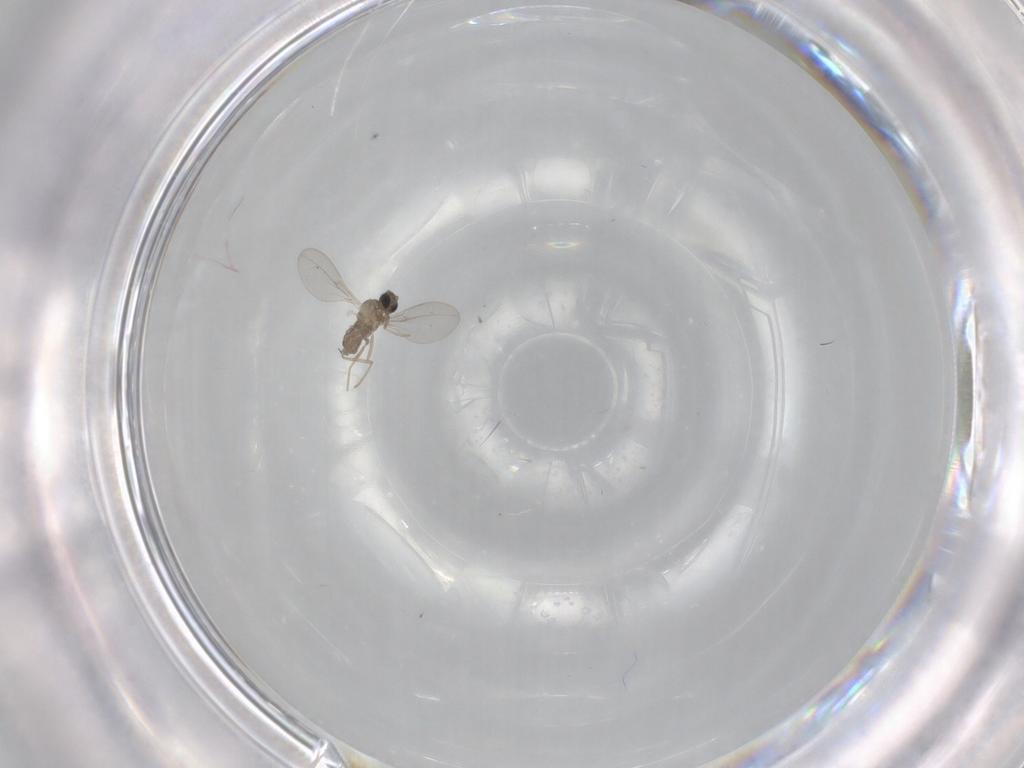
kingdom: Animalia
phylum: Arthropoda
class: Insecta
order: Diptera
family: Cecidomyiidae
